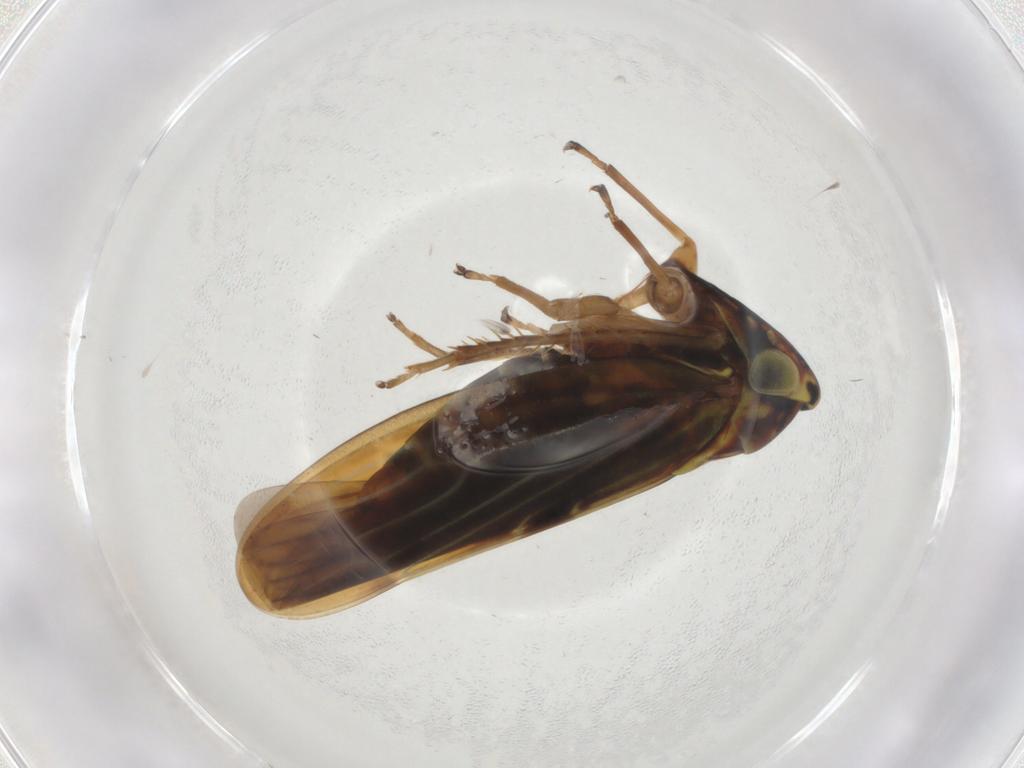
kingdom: Animalia
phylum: Arthropoda
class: Insecta
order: Hemiptera
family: Cicadellidae
